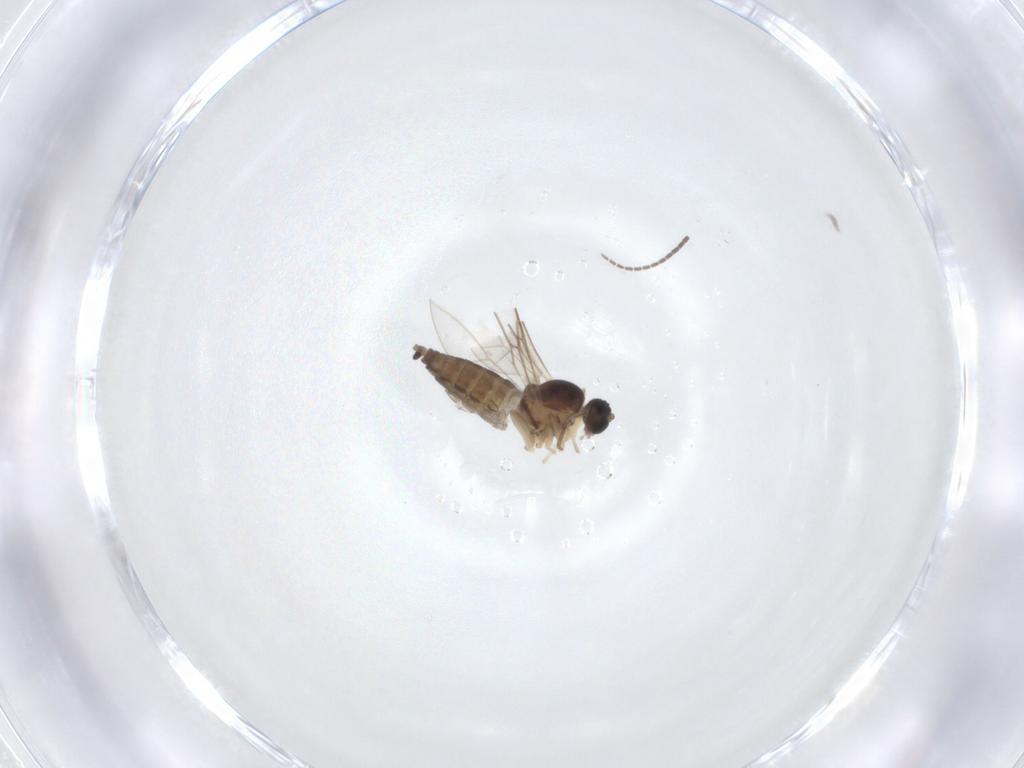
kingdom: Animalia
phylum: Arthropoda
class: Insecta
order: Diptera
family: Cecidomyiidae
